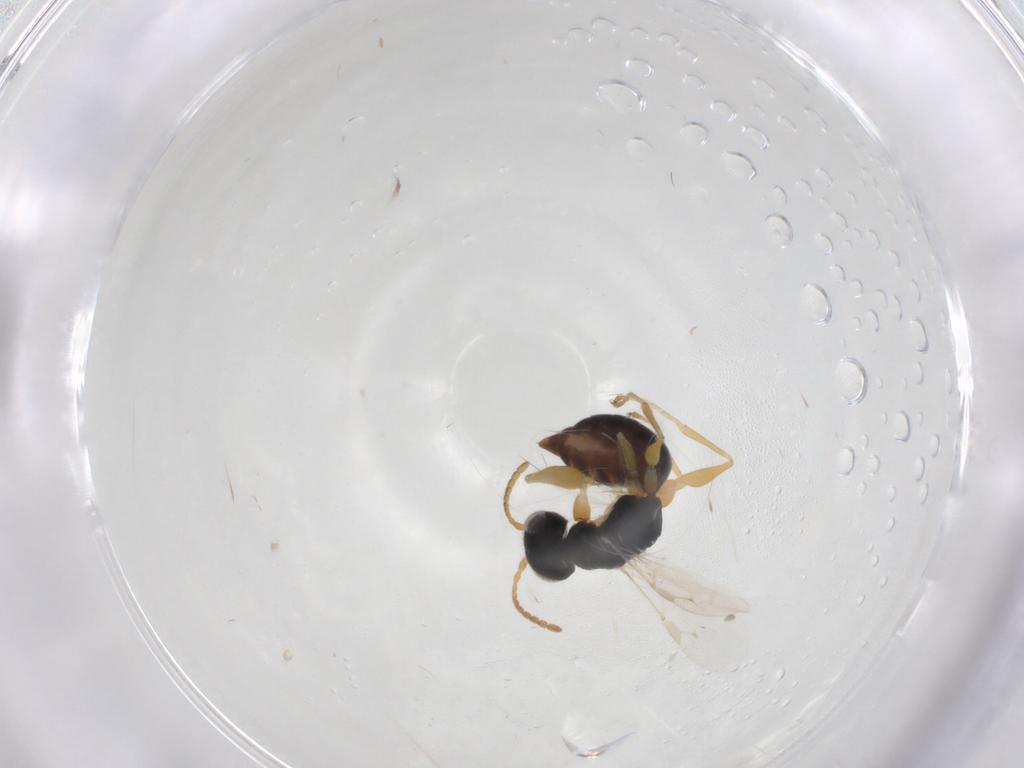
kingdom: Animalia
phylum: Arthropoda
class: Insecta
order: Hymenoptera
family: Dryinidae
